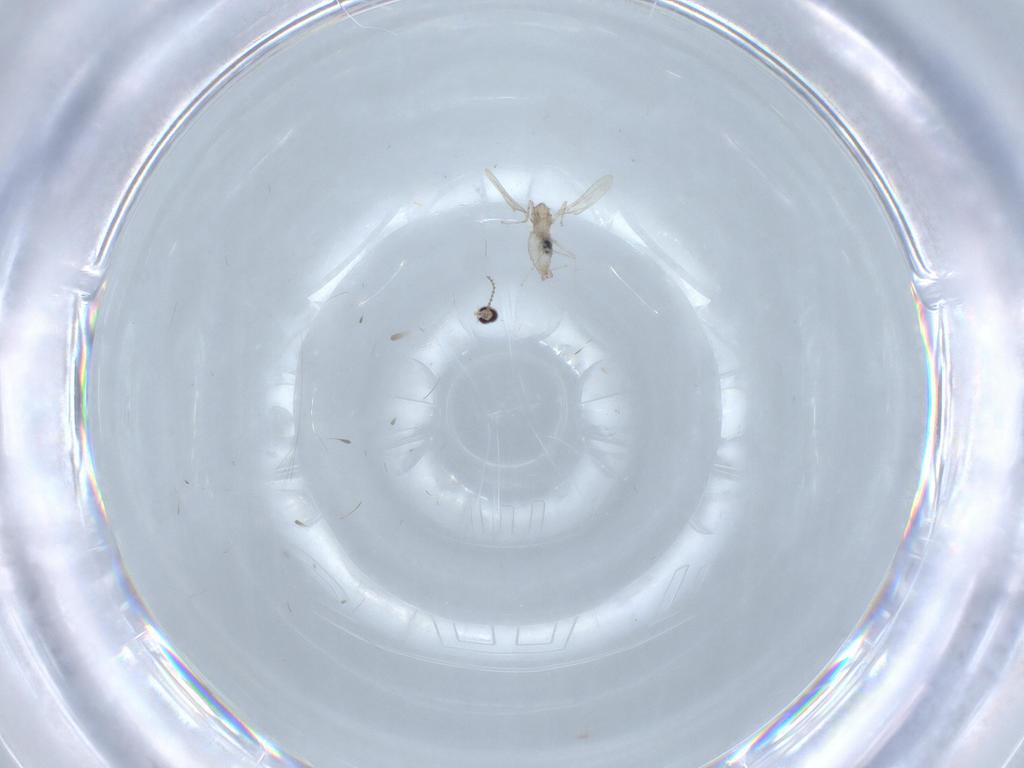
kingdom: Animalia
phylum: Arthropoda
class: Insecta
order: Diptera
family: Cecidomyiidae
